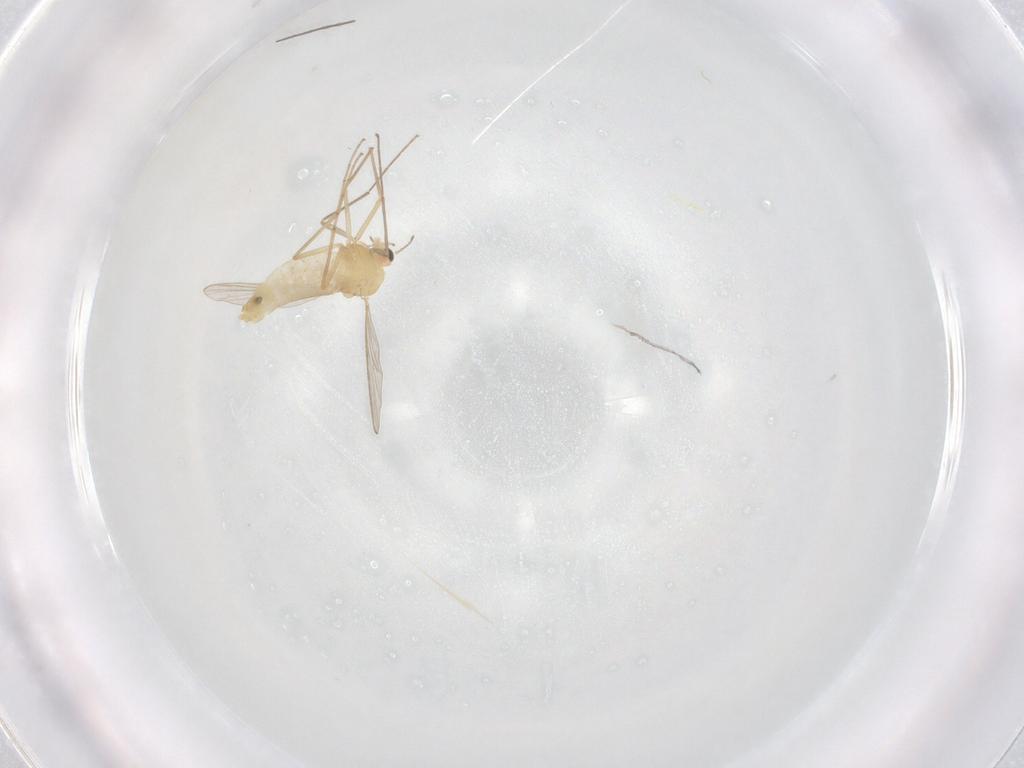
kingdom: Animalia
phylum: Arthropoda
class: Insecta
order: Diptera
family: Chironomidae
